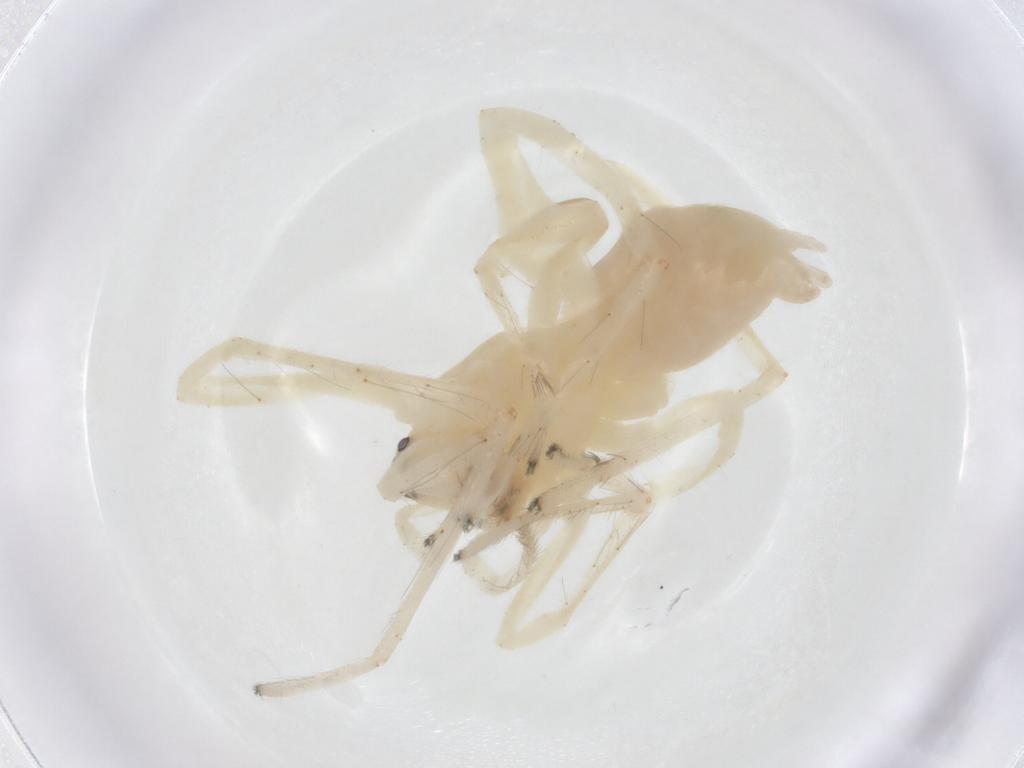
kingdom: Animalia
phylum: Arthropoda
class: Arachnida
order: Araneae
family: Anyphaenidae
